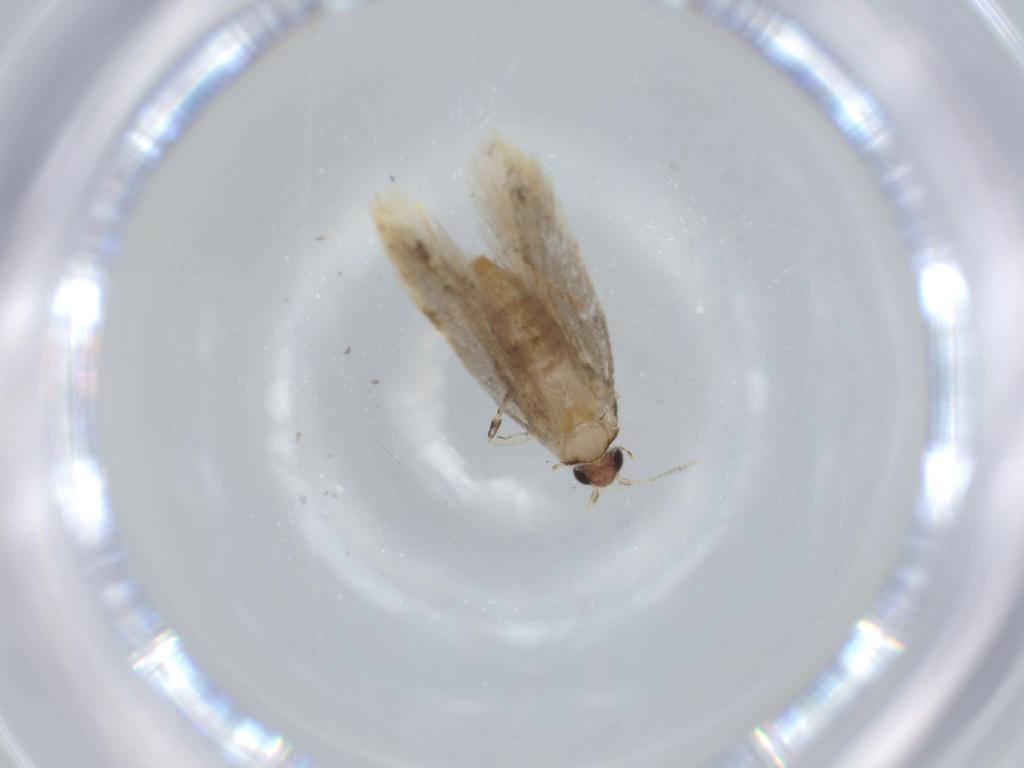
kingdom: Animalia
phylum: Arthropoda
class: Insecta
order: Lepidoptera
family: Tineidae
